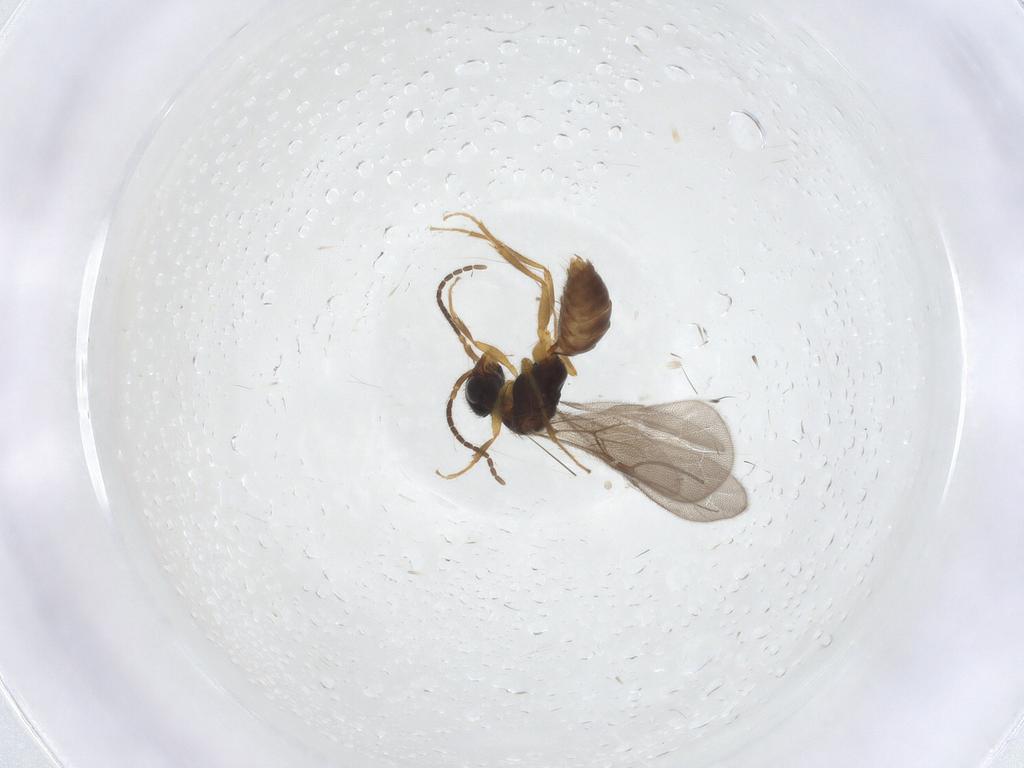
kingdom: Animalia
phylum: Arthropoda
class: Insecta
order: Hymenoptera
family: Bethylidae
